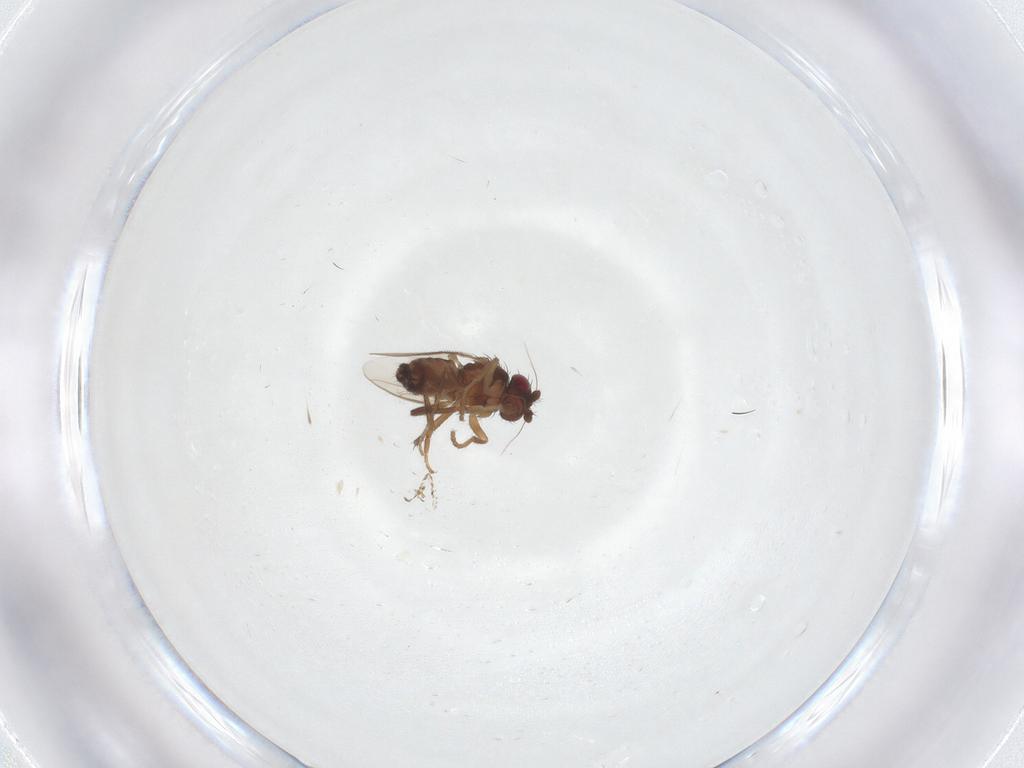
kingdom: Animalia
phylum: Arthropoda
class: Insecta
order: Diptera
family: Sphaeroceridae
